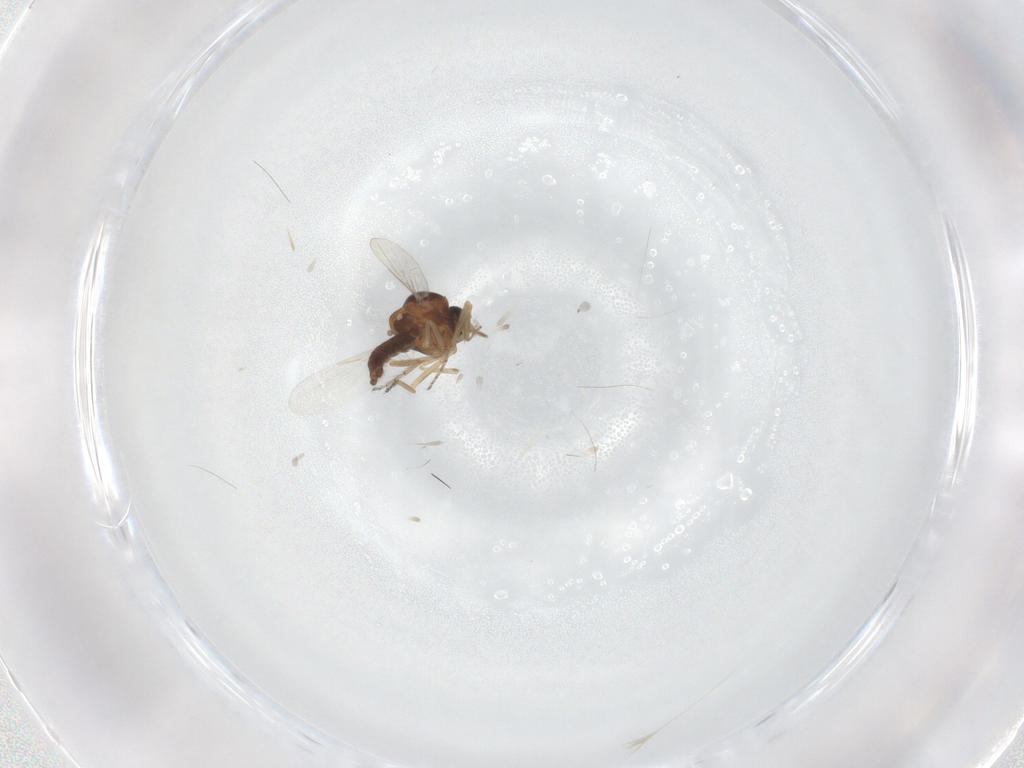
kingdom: Animalia
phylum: Arthropoda
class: Insecta
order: Diptera
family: Ceratopogonidae
